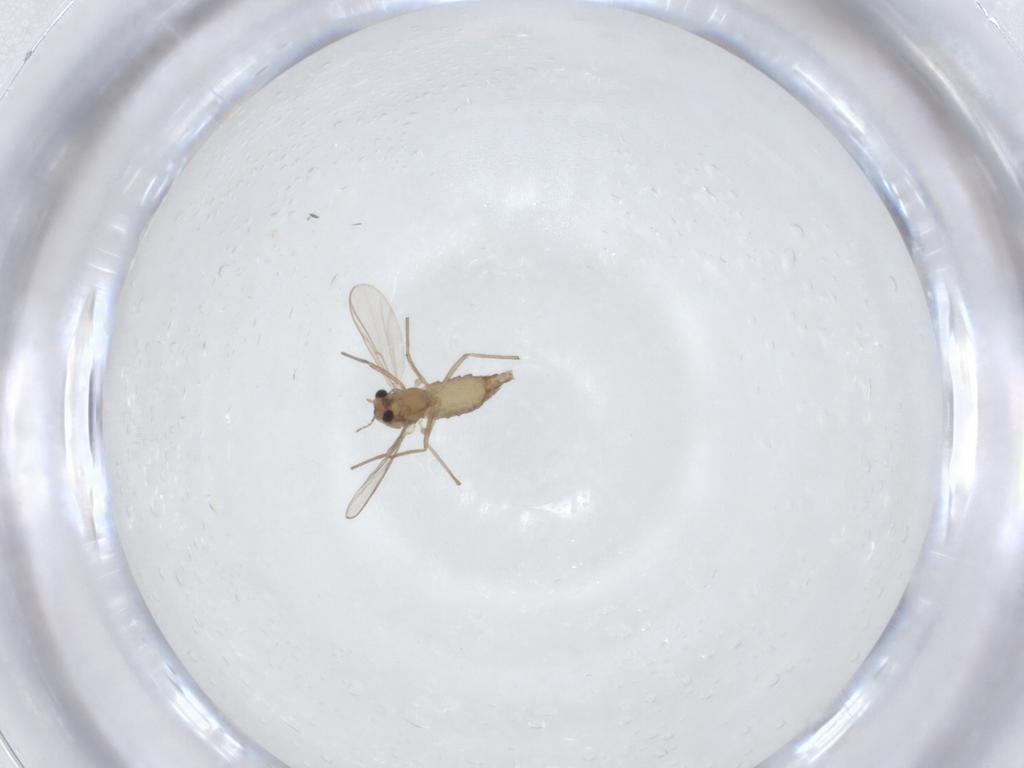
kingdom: Animalia
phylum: Arthropoda
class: Insecta
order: Diptera
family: Chironomidae
